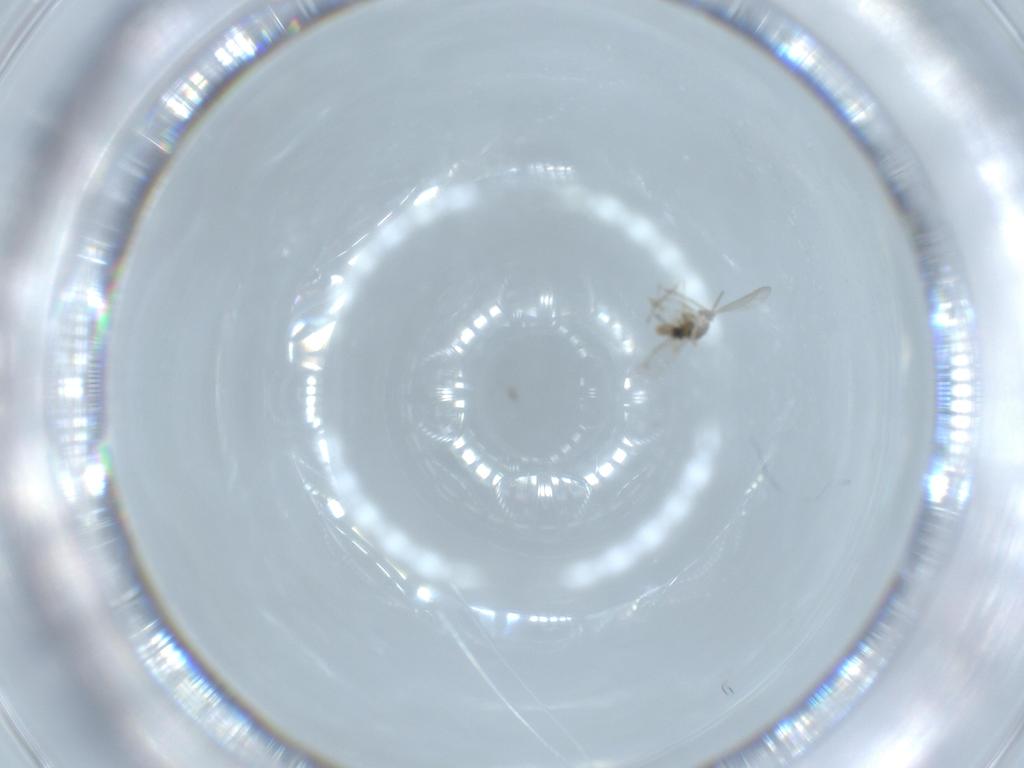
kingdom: Animalia
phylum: Arthropoda
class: Insecta
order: Diptera
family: Cecidomyiidae
